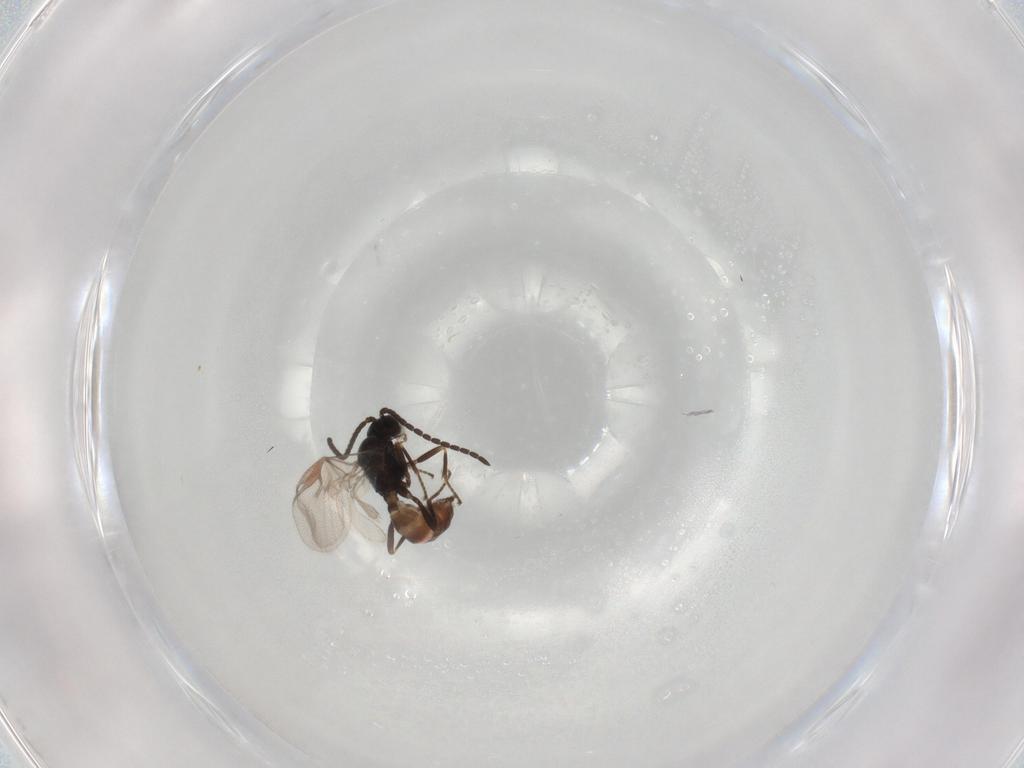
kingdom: Animalia
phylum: Arthropoda
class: Insecta
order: Hymenoptera
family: Braconidae
